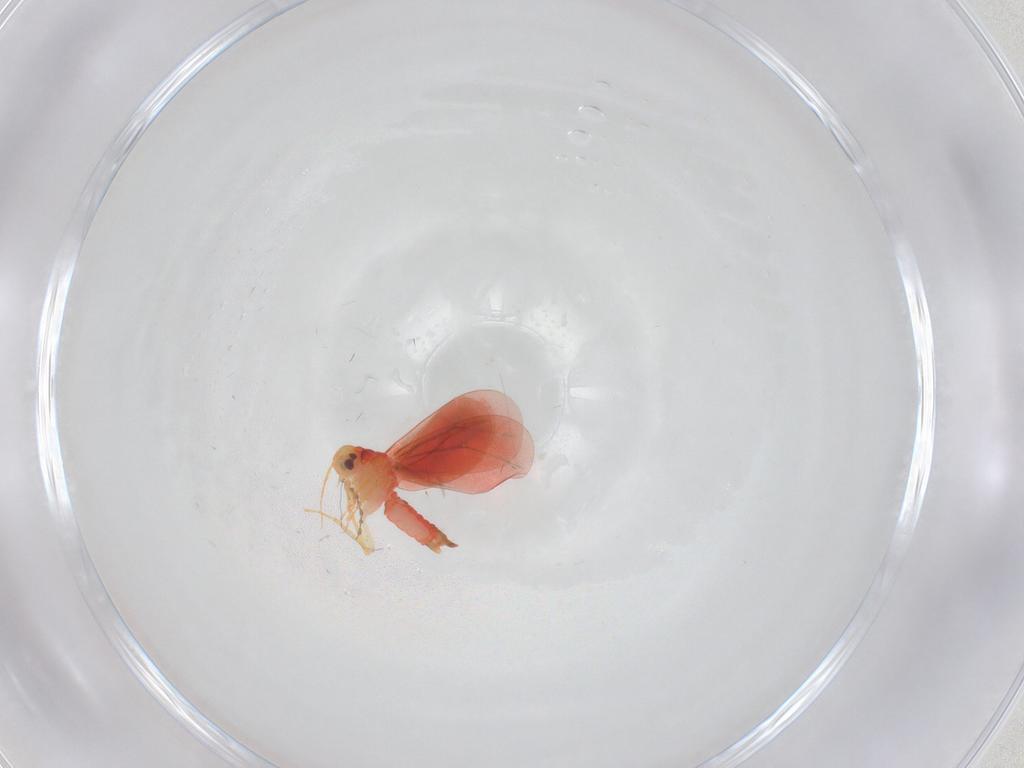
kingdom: Animalia
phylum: Arthropoda
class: Insecta
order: Hemiptera
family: Aleyrodidae
